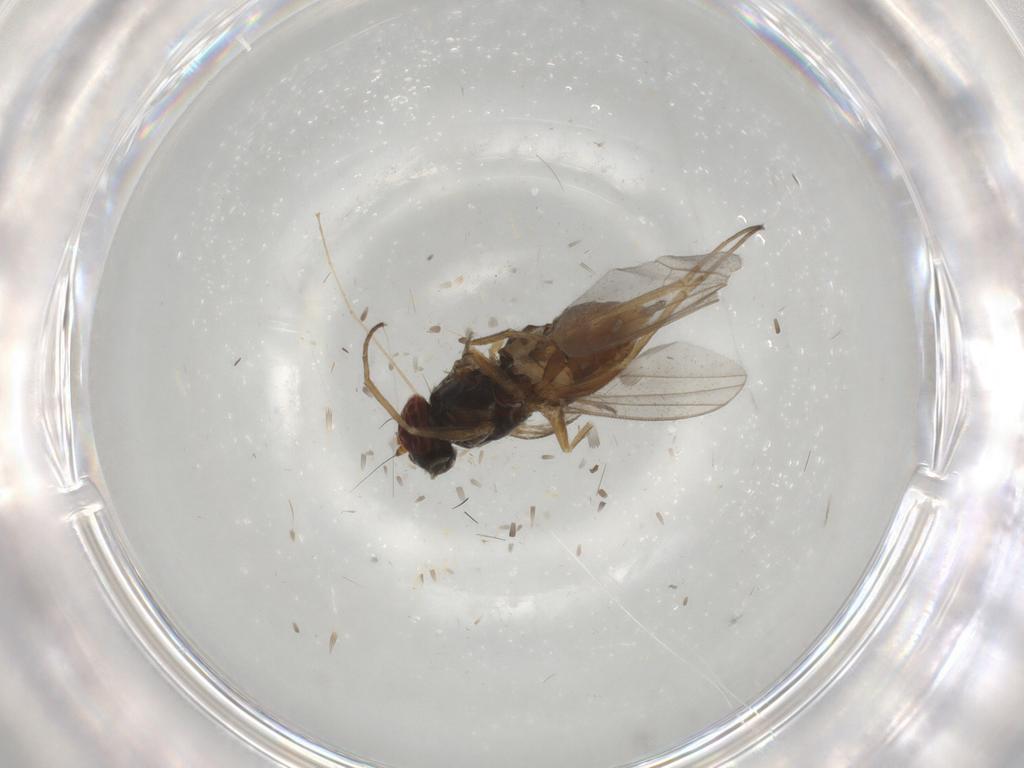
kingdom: Animalia
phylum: Arthropoda
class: Insecta
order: Diptera
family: Dolichopodidae
